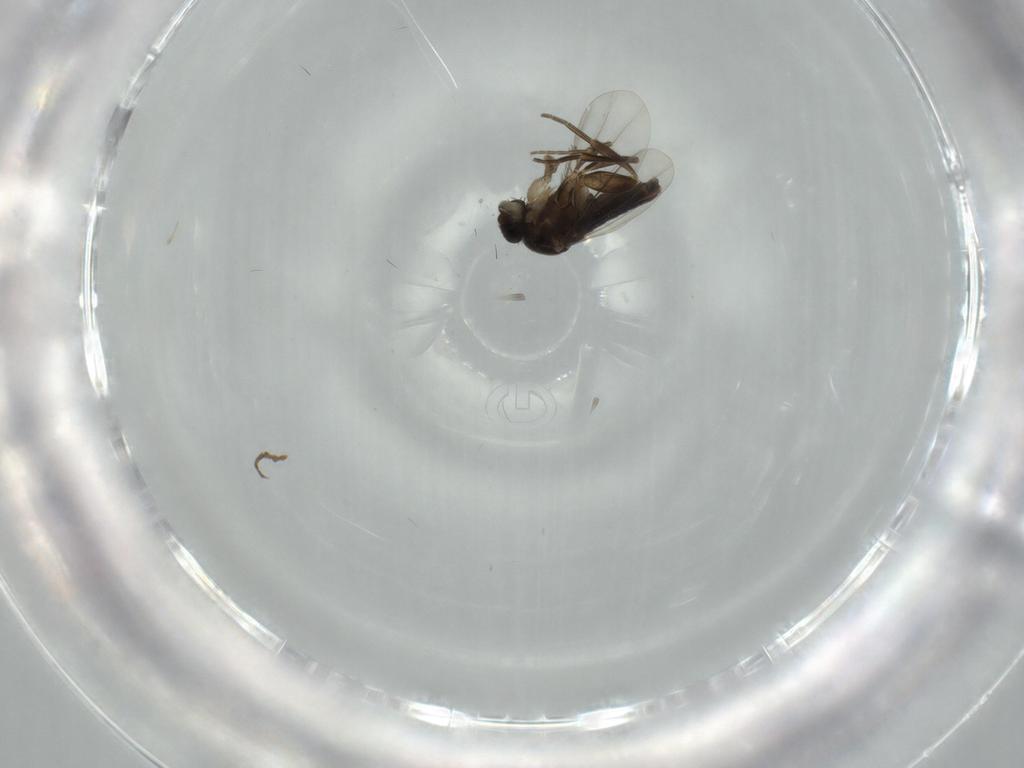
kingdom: Animalia
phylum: Arthropoda
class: Insecta
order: Diptera
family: Phoridae
